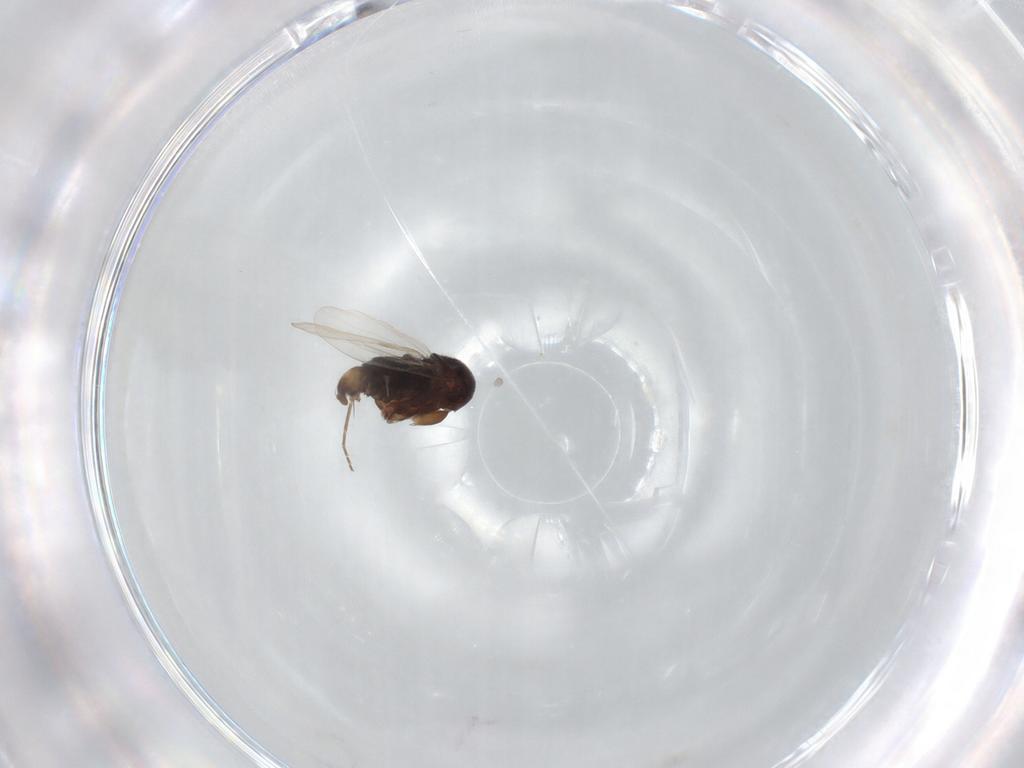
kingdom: Animalia
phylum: Arthropoda
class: Insecta
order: Diptera
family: Phoridae
